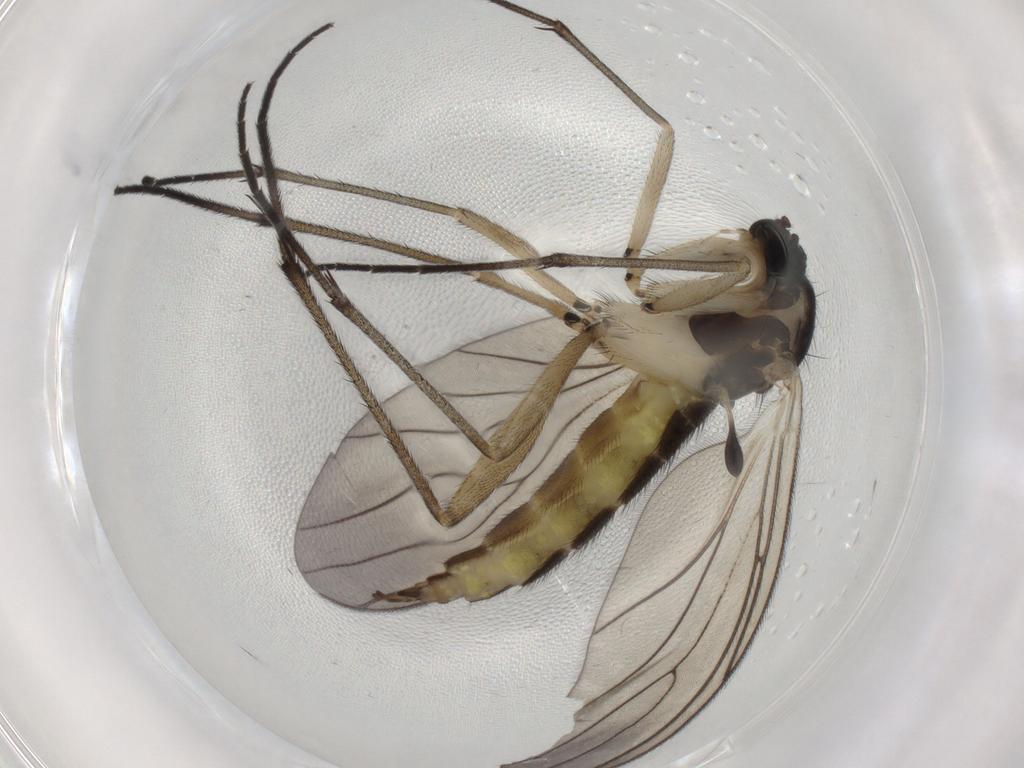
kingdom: Animalia
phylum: Arthropoda
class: Insecta
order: Diptera
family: Sciaridae
